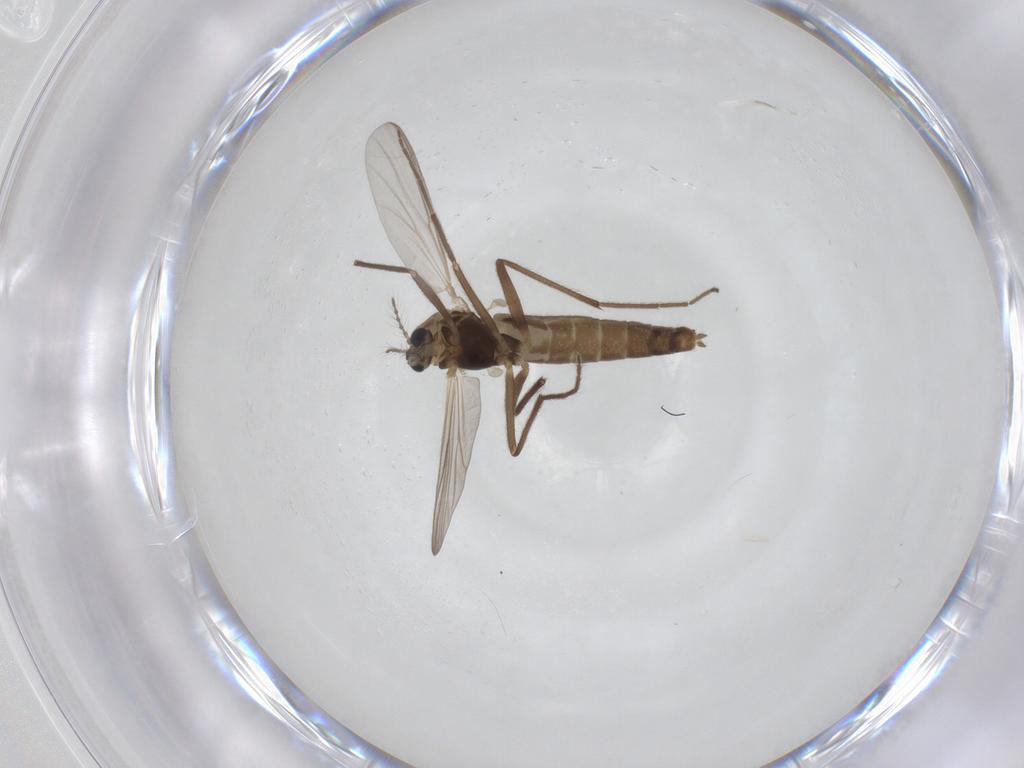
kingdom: Animalia
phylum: Arthropoda
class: Insecta
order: Diptera
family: Chironomidae
